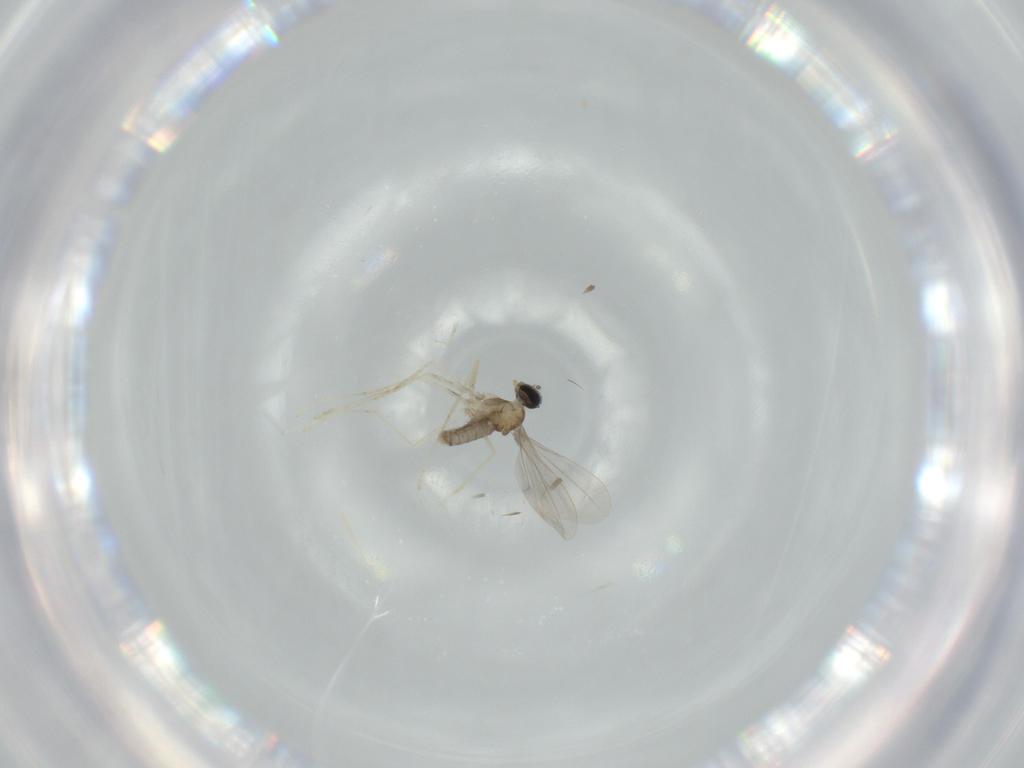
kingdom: Animalia
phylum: Arthropoda
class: Insecta
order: Diptera
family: Cecidomyiidae
